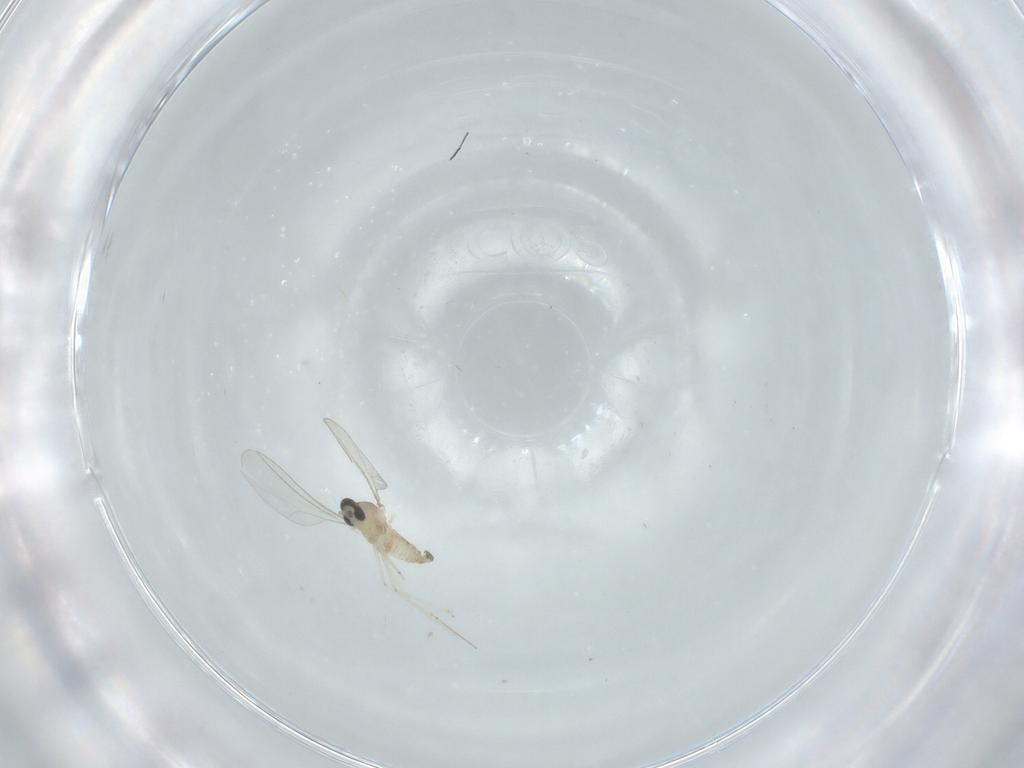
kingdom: Animalia
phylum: Arthropoda
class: Insecta
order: Diptera
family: Cecidomyiidae
